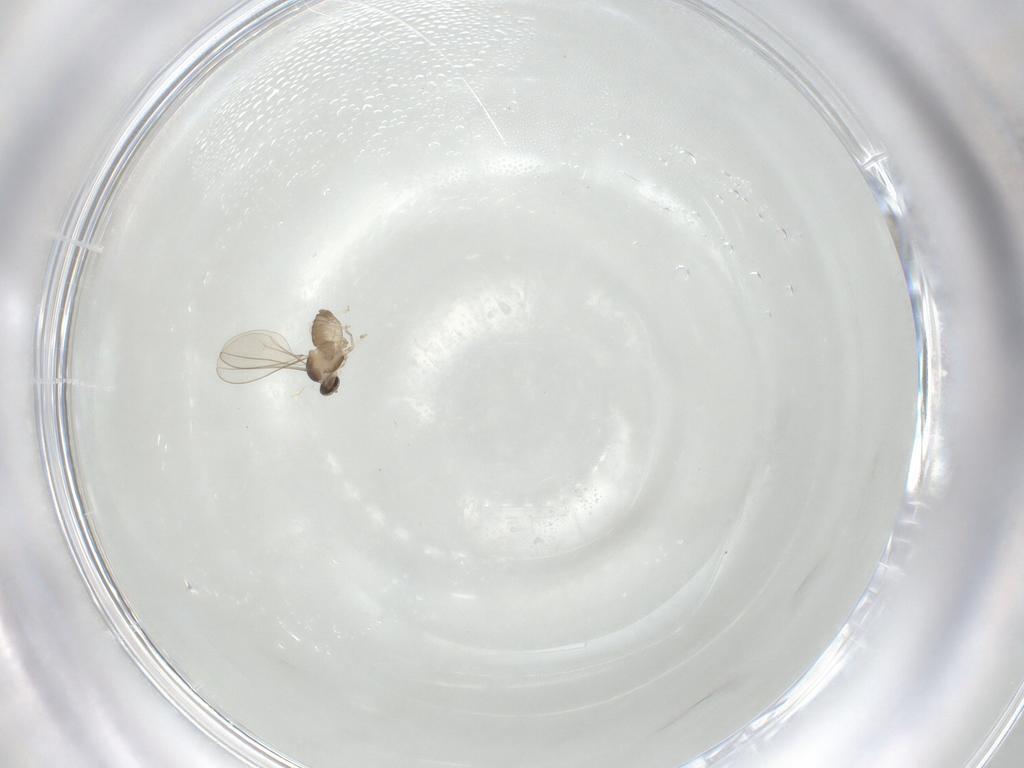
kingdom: Animalia
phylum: Arthropoda
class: Insecta
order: Diptera
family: Cecidomyiidae
